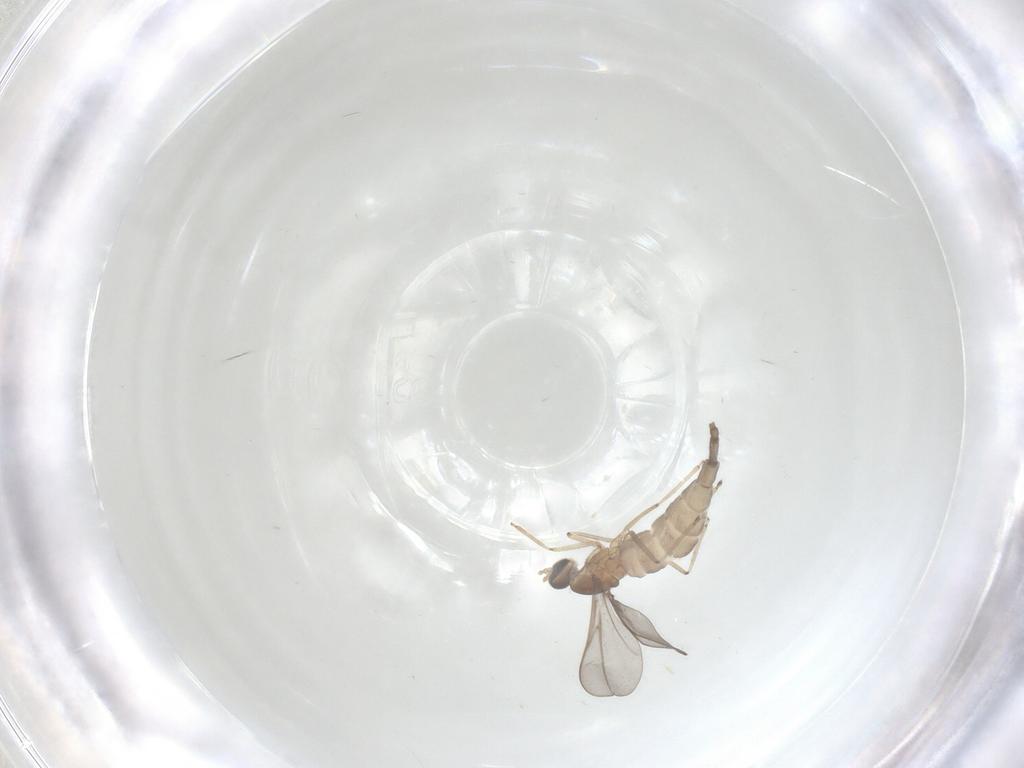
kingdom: Animalia
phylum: Arthropoda
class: Insecta
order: Diptera
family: Cecidomyiidae
